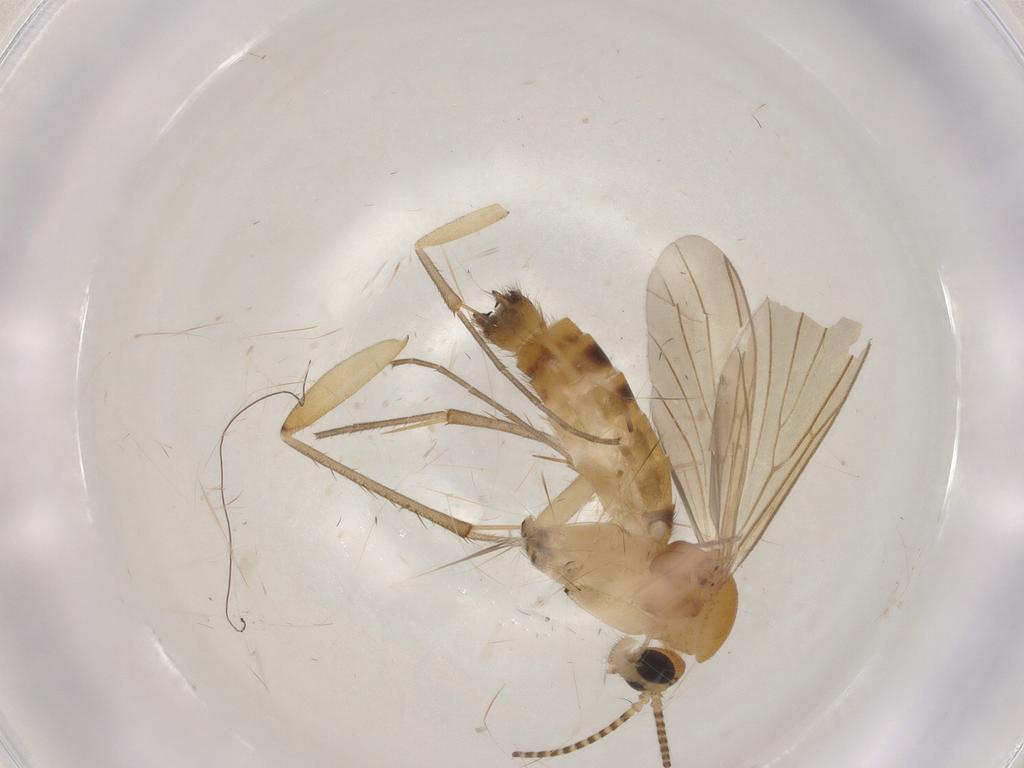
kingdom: Animalia
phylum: Arthropoda
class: Insecta
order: Diptera
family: Mycetophilidae
